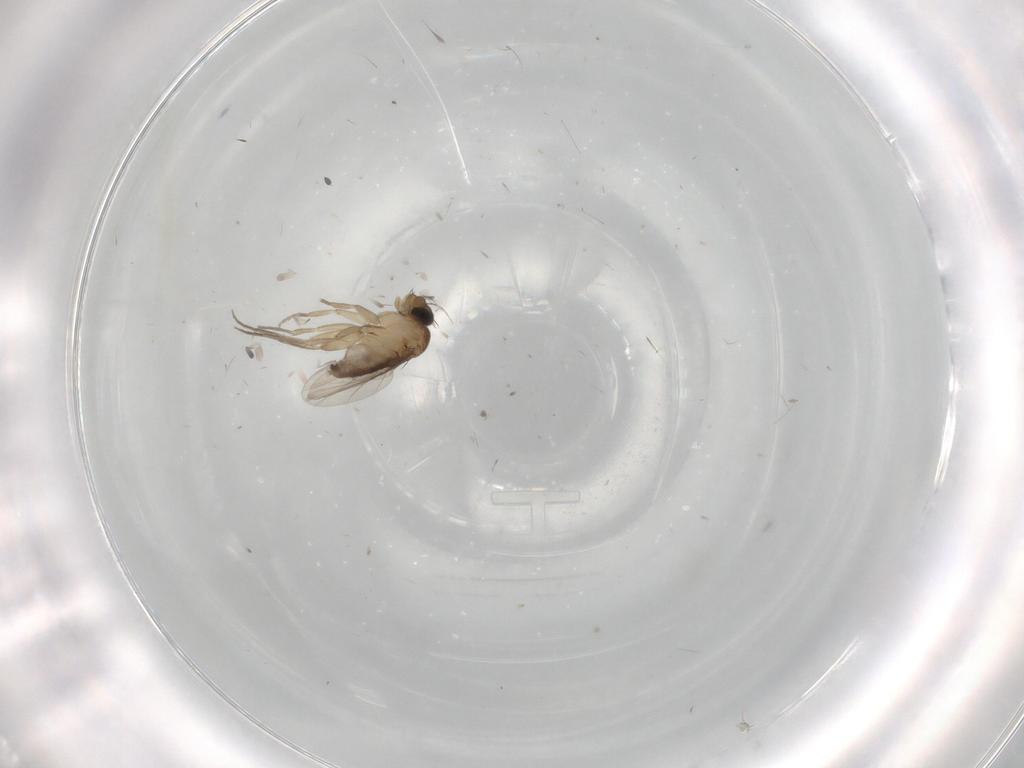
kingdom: Animalia
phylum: Arthropoda
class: Insecta
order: Diptera
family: Phoridae
